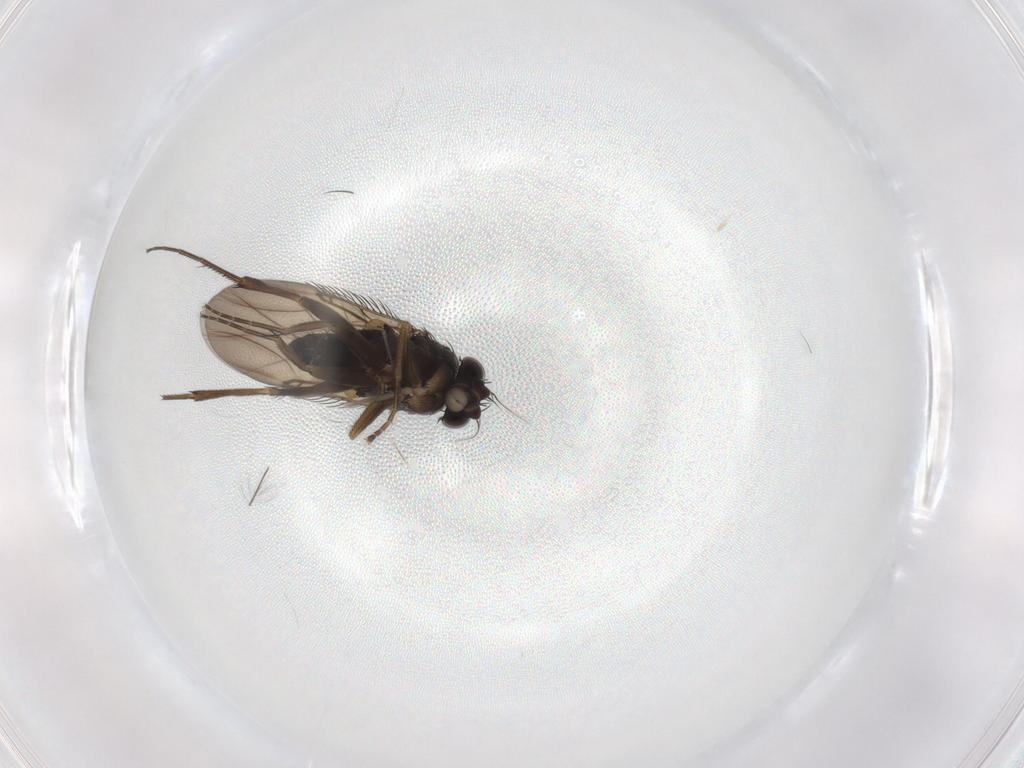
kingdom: Animalia
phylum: Arthropoda
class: Insecta
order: Diptera
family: Phoridae
